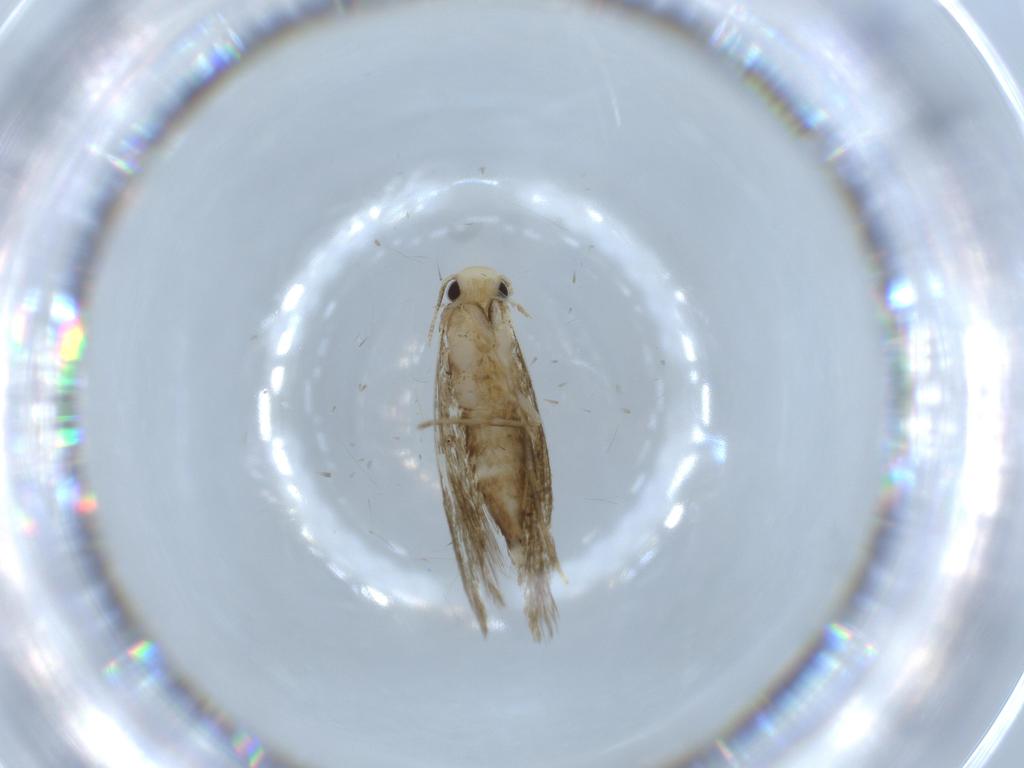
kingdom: Animalia
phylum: Arthropoda
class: Insecta
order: Lepidoptera
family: Tineidae
